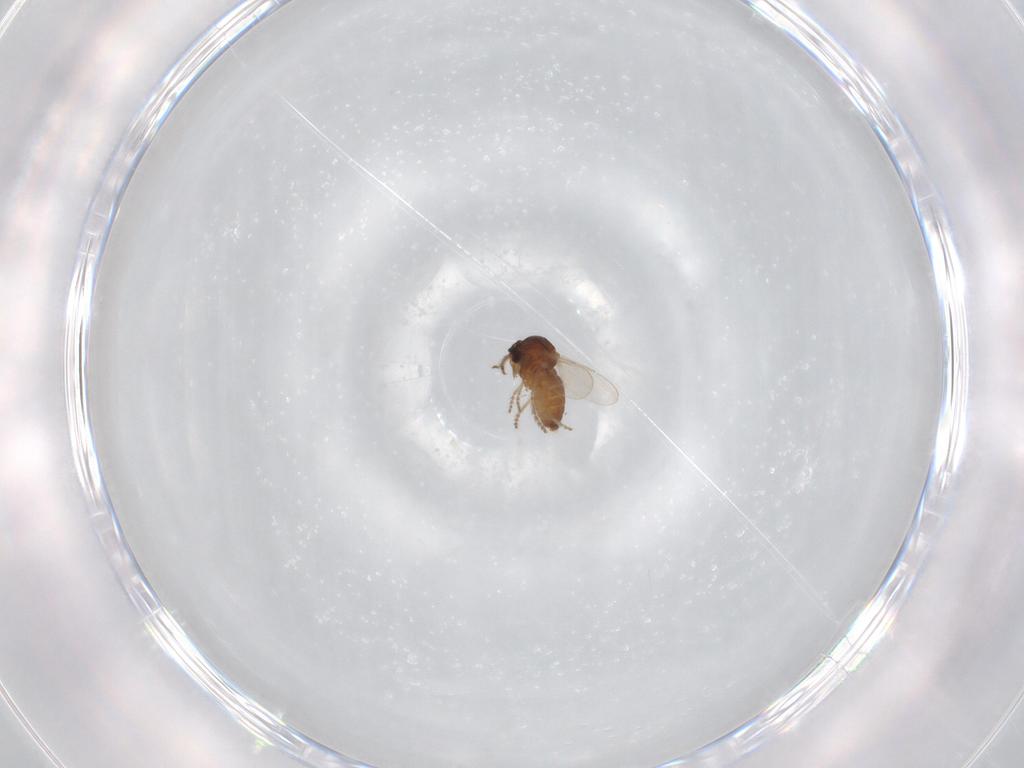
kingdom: Animalia
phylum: Arthropoda
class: Insecta
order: Diptera
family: Ceratopogonidae
